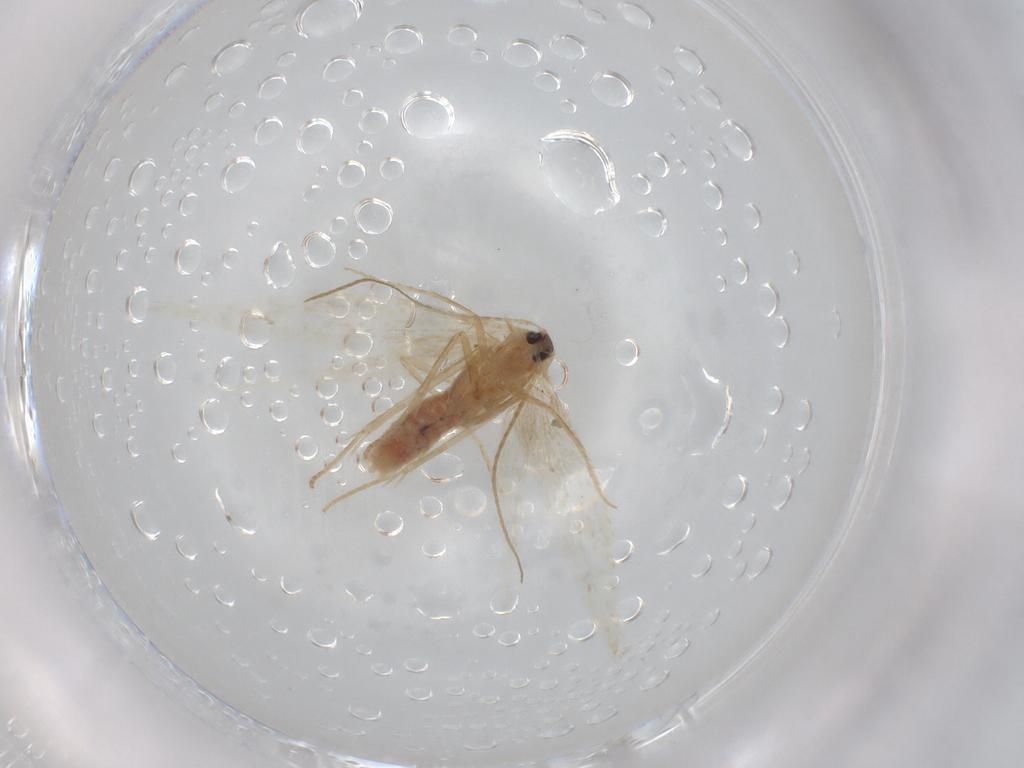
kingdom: Animalia
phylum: Arthropoda
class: Insecta
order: Lepidoptera
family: Coleophoridae
